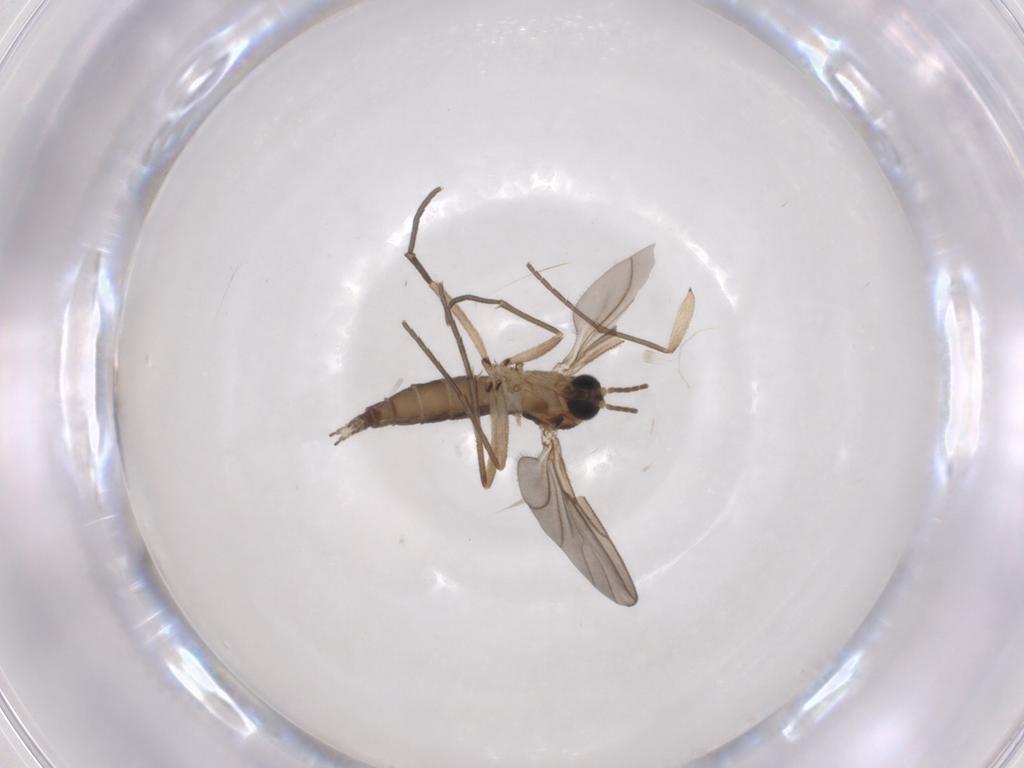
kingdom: Animalia
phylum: Arthropoda
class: Insecta
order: Diptera
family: Sciaridae
